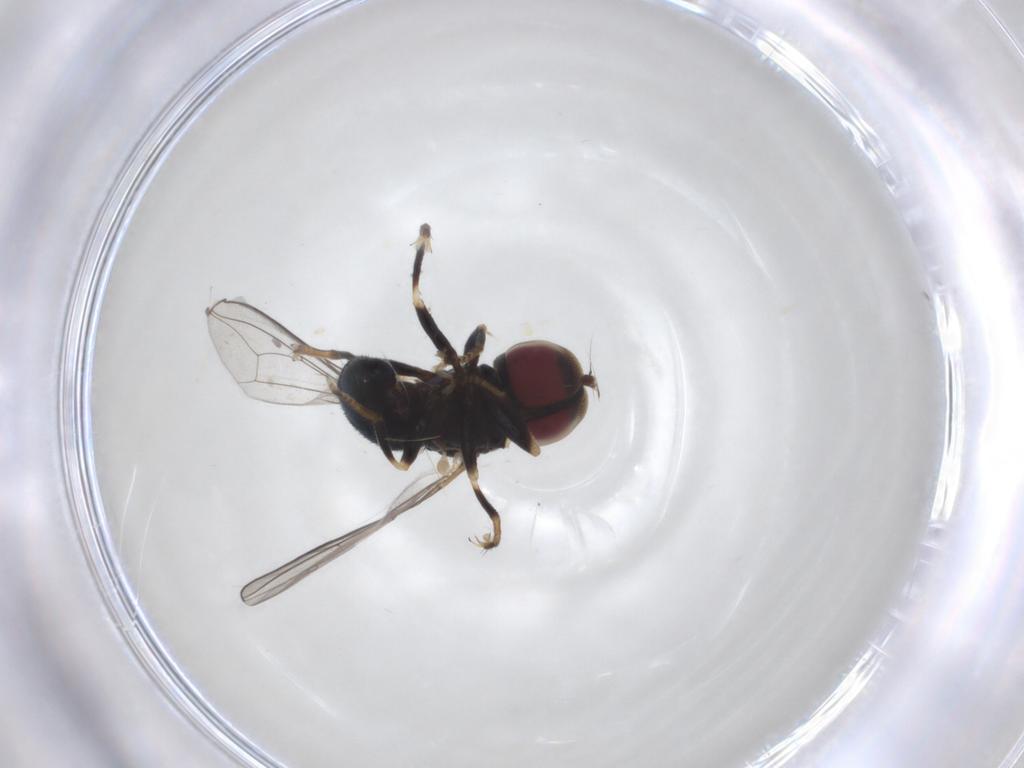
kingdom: Animalia
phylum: Arthropoda
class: Insecta
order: Diptera
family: Pipunculidae
